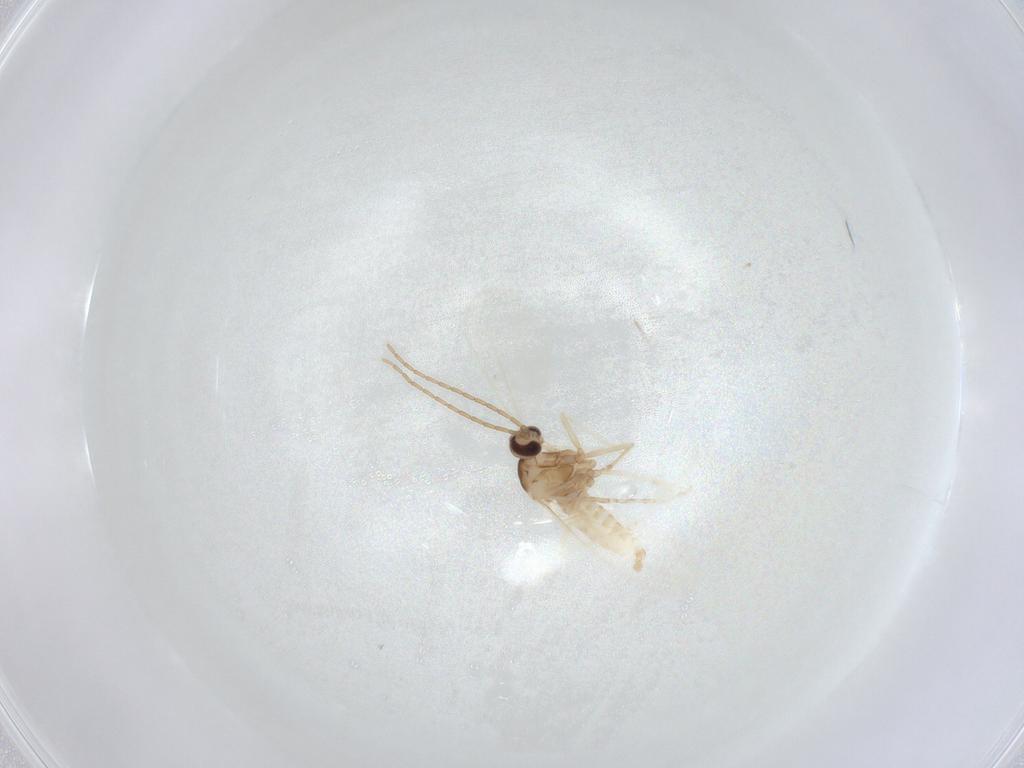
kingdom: Animalia
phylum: Arthropoda
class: Insecta
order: Diptera
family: Cecidomyiidae
